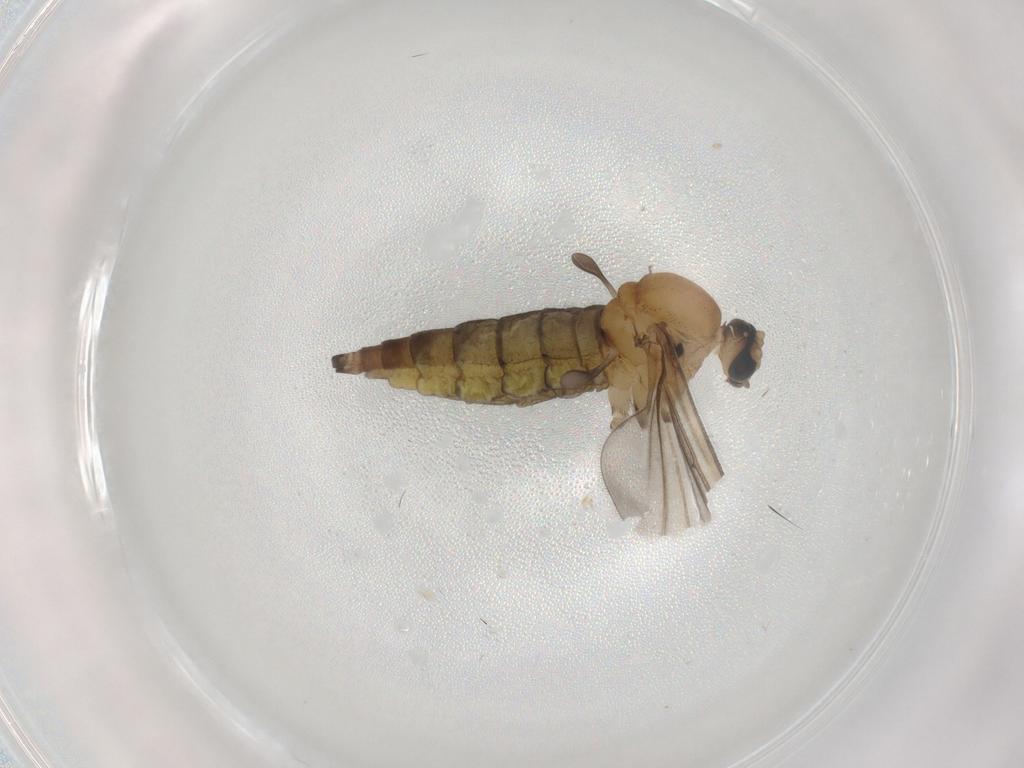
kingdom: Animalia
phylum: Arthropoda
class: Insecta
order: Diptera
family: Sciaridae
